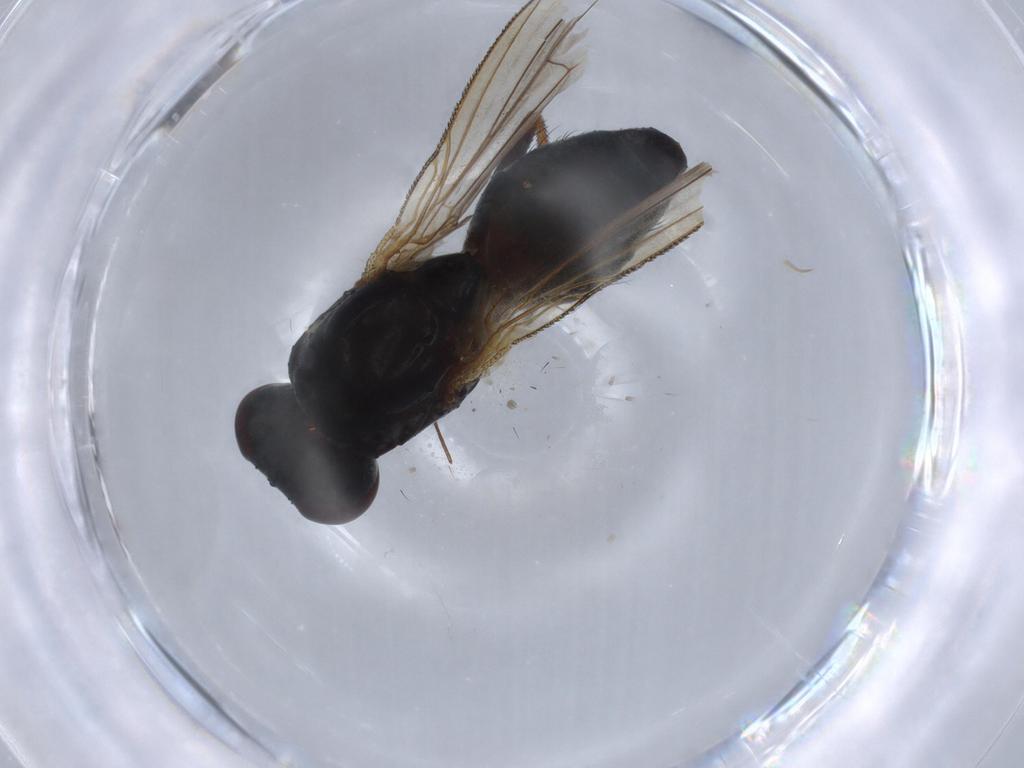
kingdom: Animalia
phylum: Arthropoda
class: Insecta
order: Diptera
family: Muscidae
